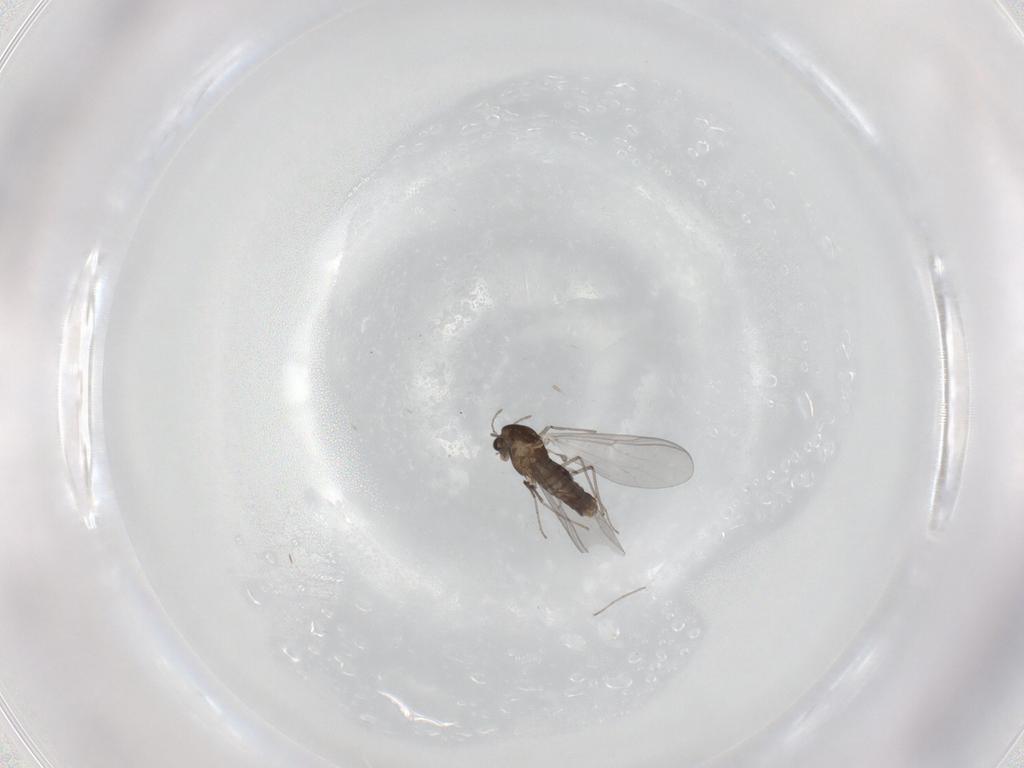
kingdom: Animalia
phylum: Arthropoda
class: Insecta
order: Diptera
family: Chironomidae
